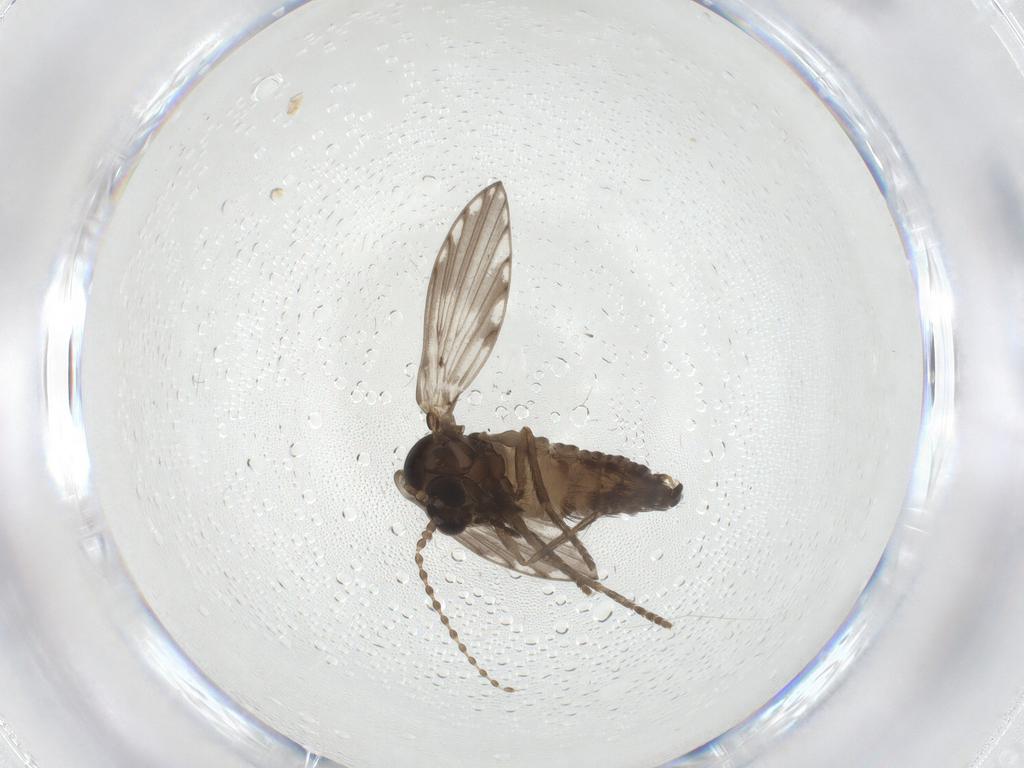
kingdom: Animalia
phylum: Arthropoda
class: Insecta
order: Diptera
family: Psychodidae
